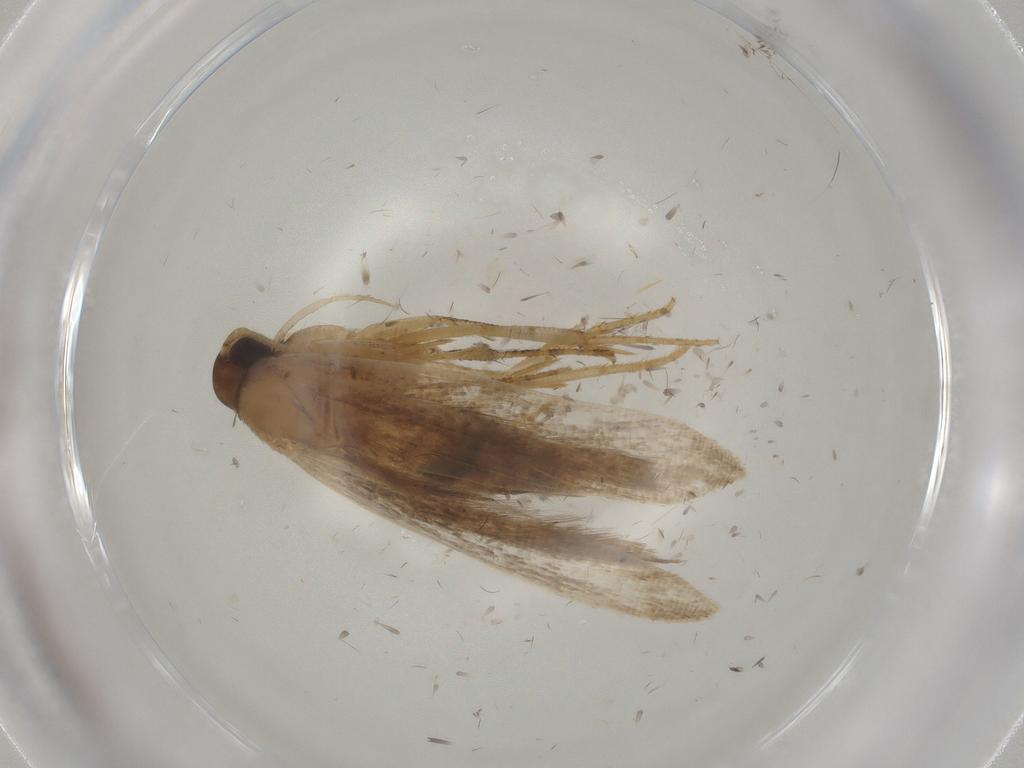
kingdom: Animalia
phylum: Arthropoda
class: Insecta
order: Lepidoptera
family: Gelechiidae
